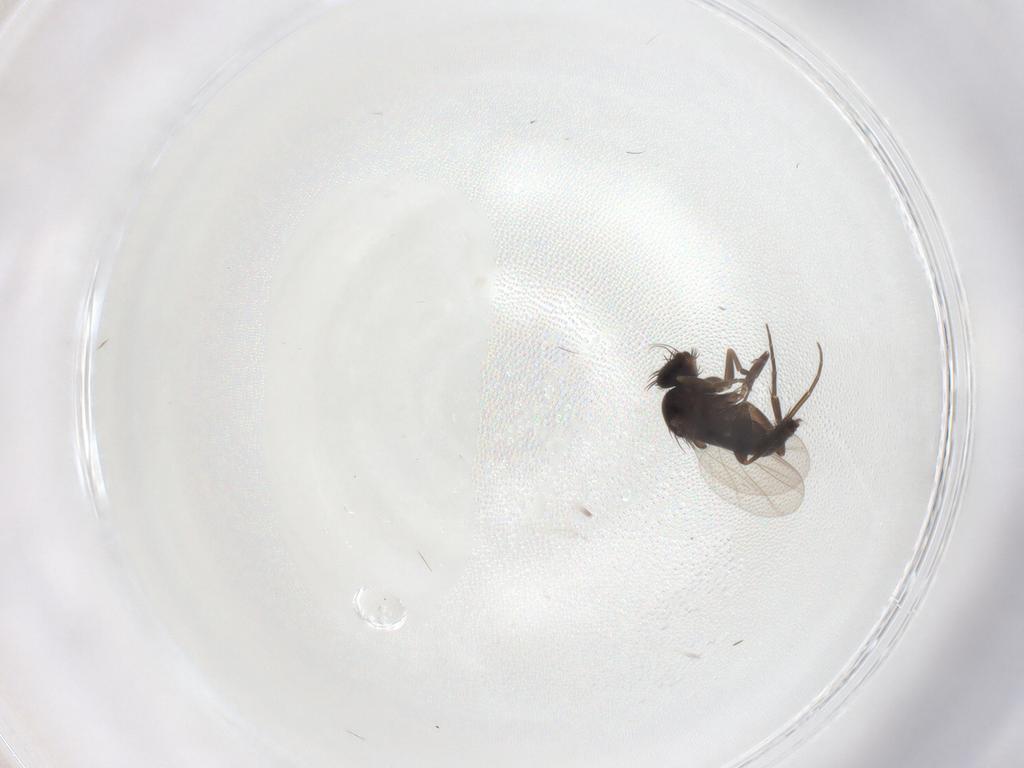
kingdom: Animalia
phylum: Arthropoda
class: Insecta
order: Diptera
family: Phoridae
